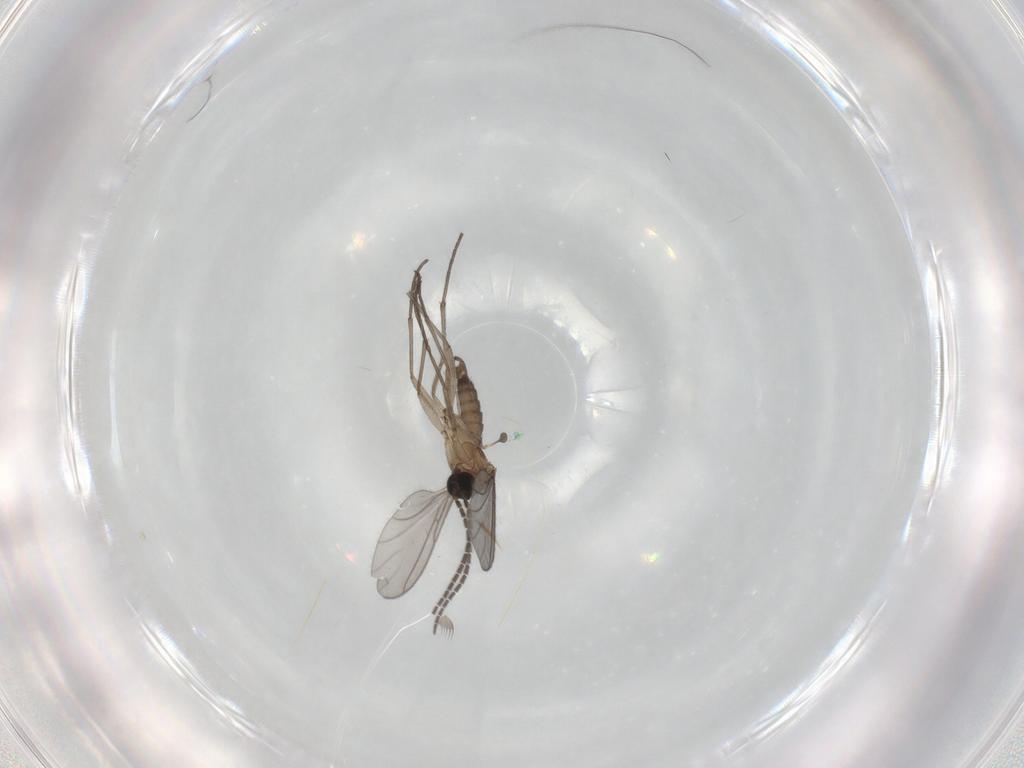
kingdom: Animalia
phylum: Arthropoda
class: Insecta
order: Diptera
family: Sciaridae
